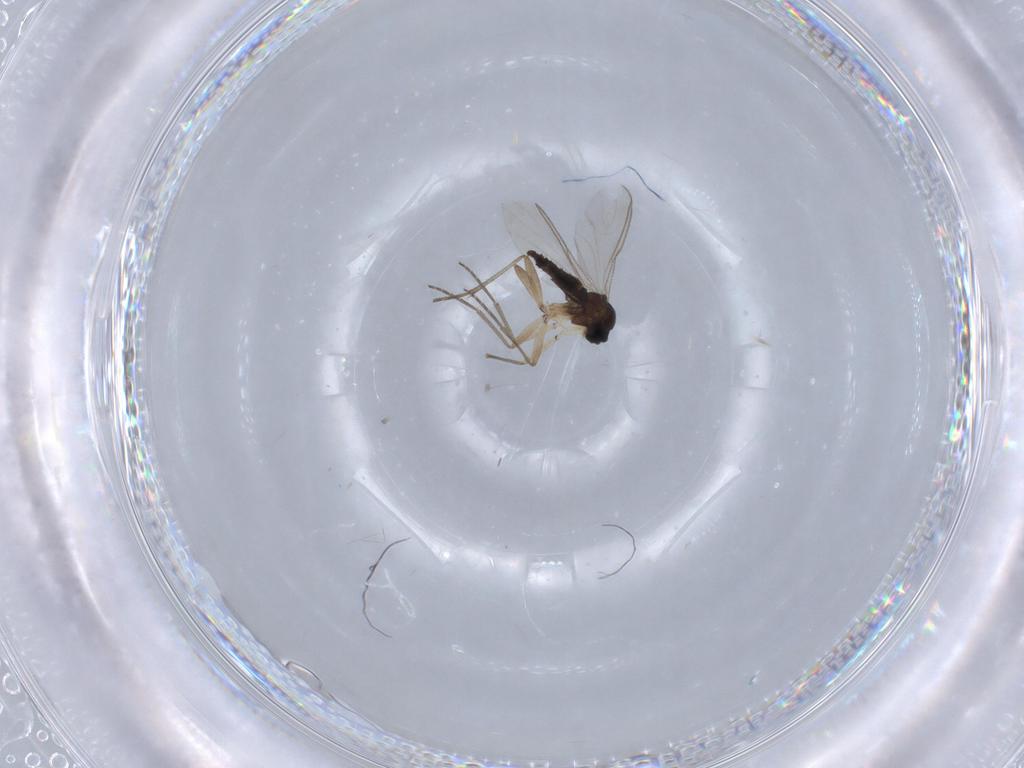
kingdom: Animalia
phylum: Arthropoda
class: Insecta
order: Diptera
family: Sciaridae
